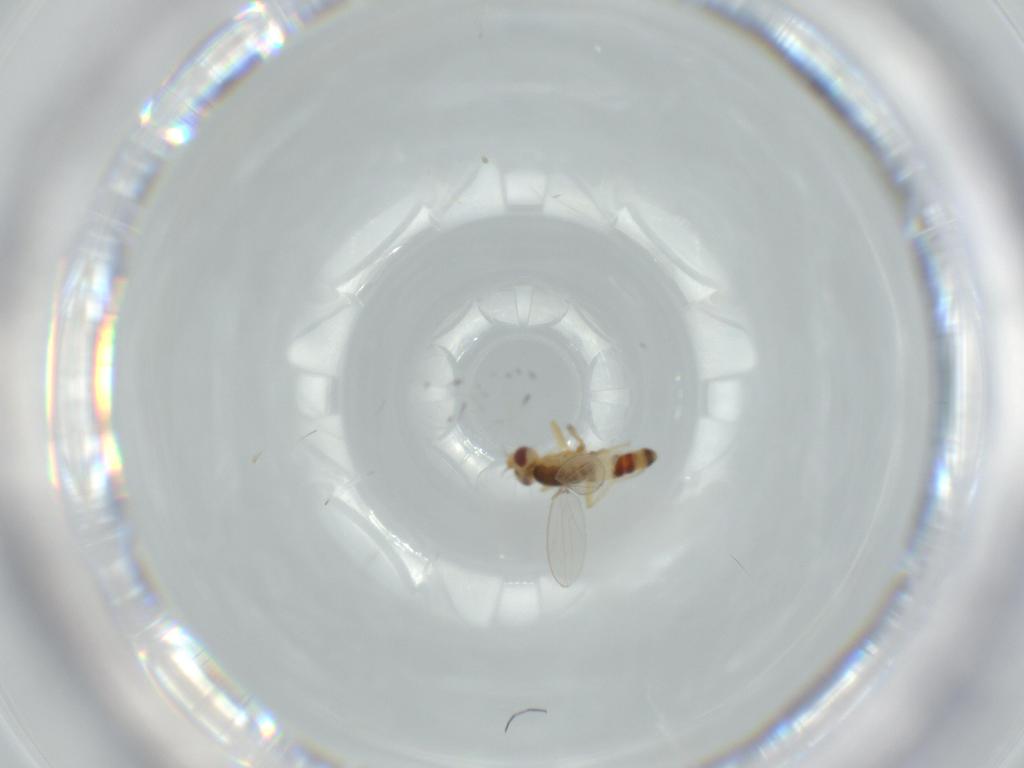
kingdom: Animalia
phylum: Arthropoda
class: Insecta
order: Diptera
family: Periscelididae
